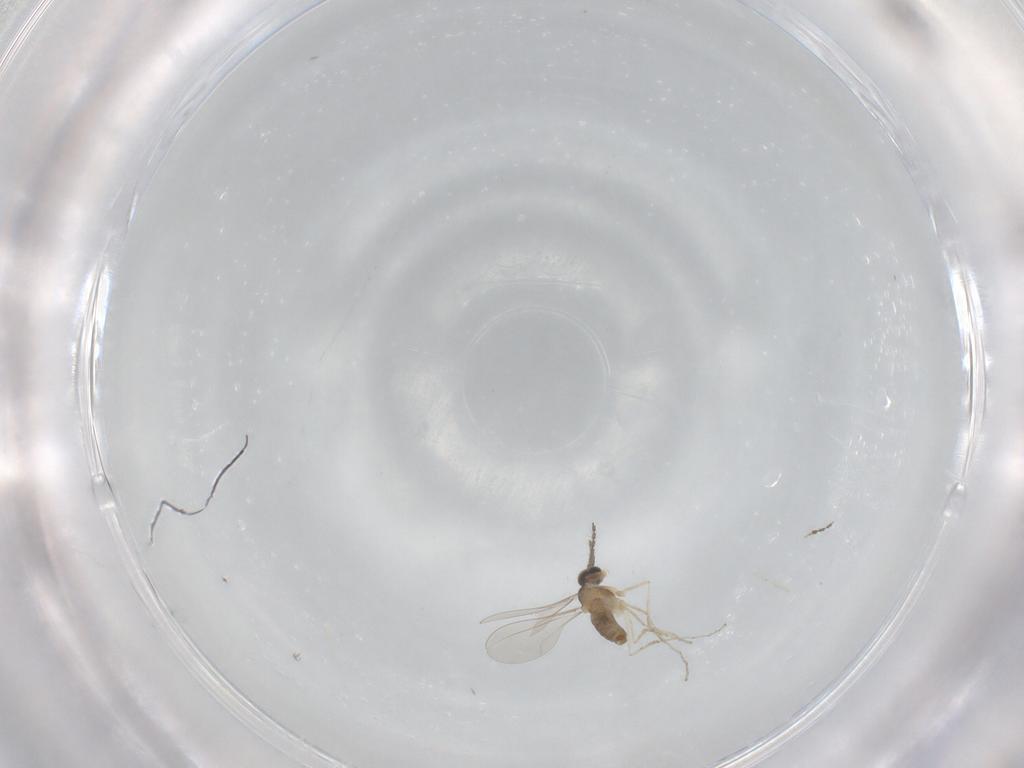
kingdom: Animalia
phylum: Arthropoda
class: Insecta
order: Diptera
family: Cecidomyiidae
